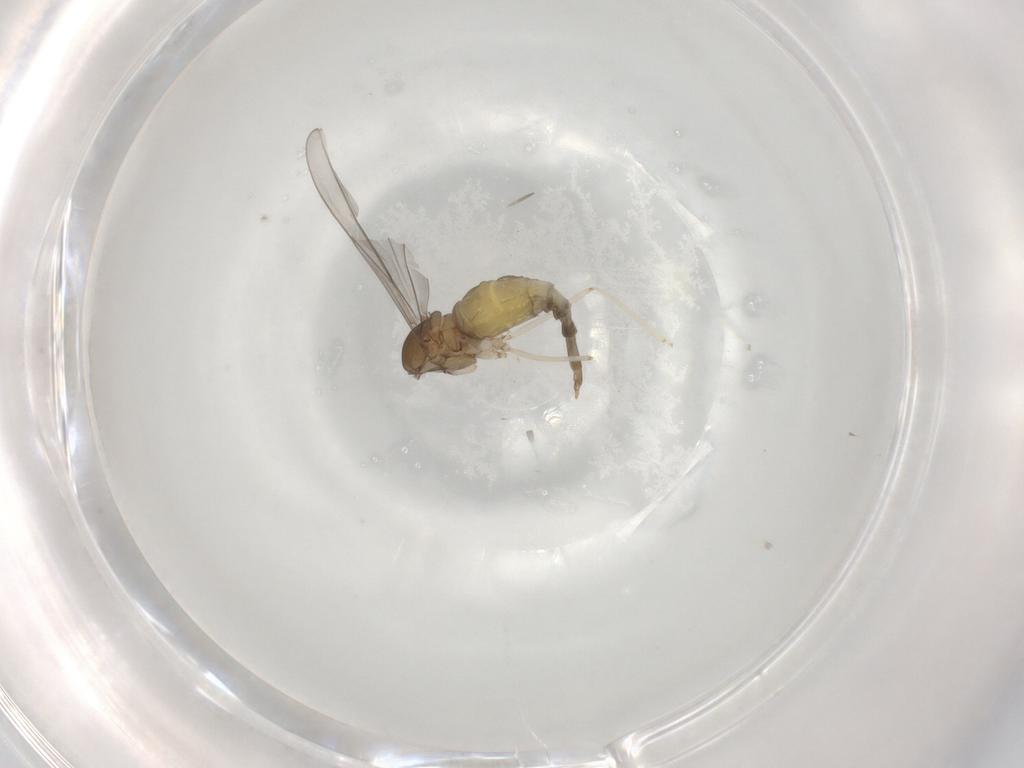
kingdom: Animalia
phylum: Arthropoda
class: Insecta
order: Diptera
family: Cecidomyiidae
